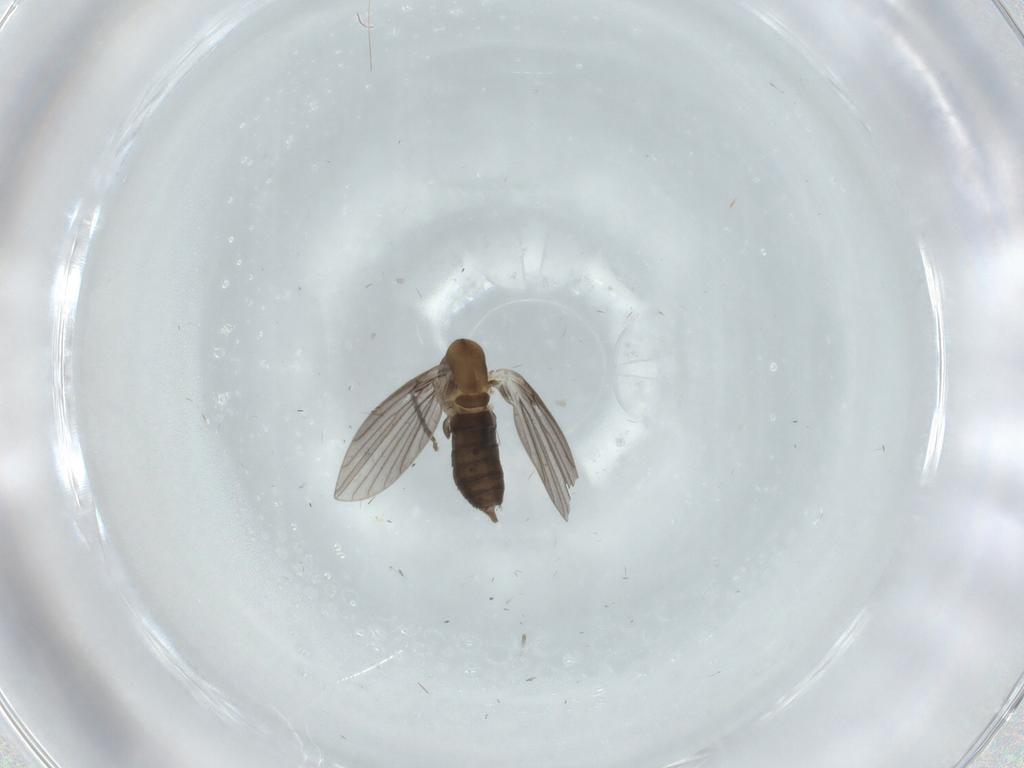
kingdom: Animalia
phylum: Arthropoda
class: Insecta
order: Diptera
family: Psychodidae
